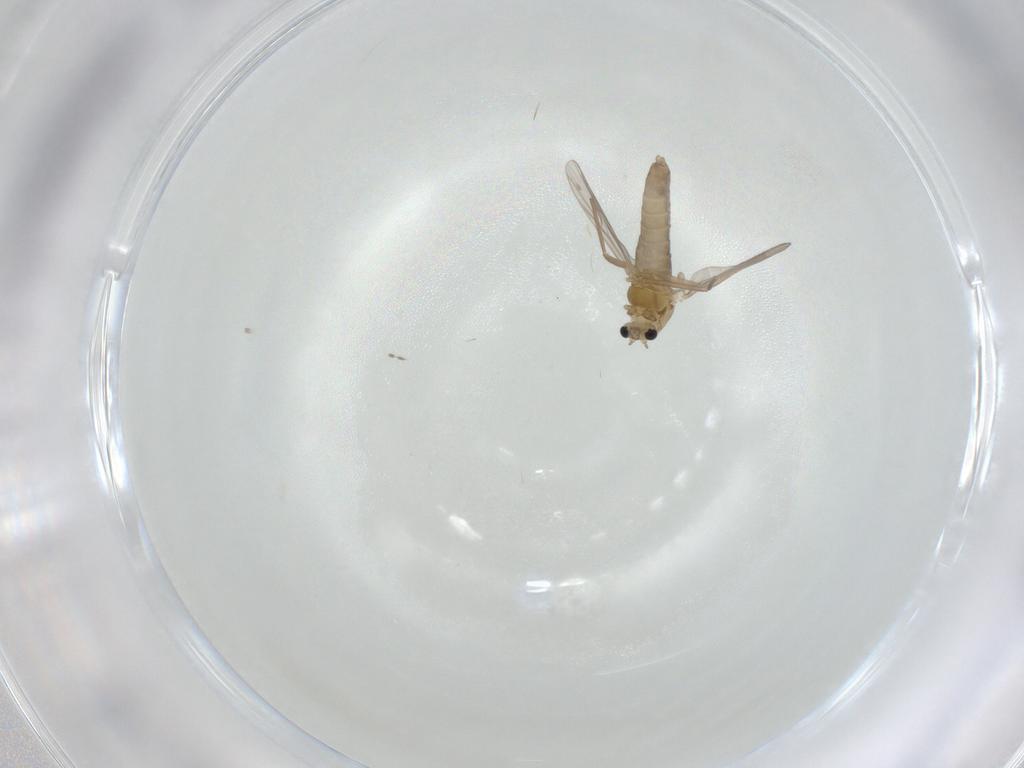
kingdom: Animalia
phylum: Arthropoda
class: Insecta
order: Diptera
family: Chironomidae
